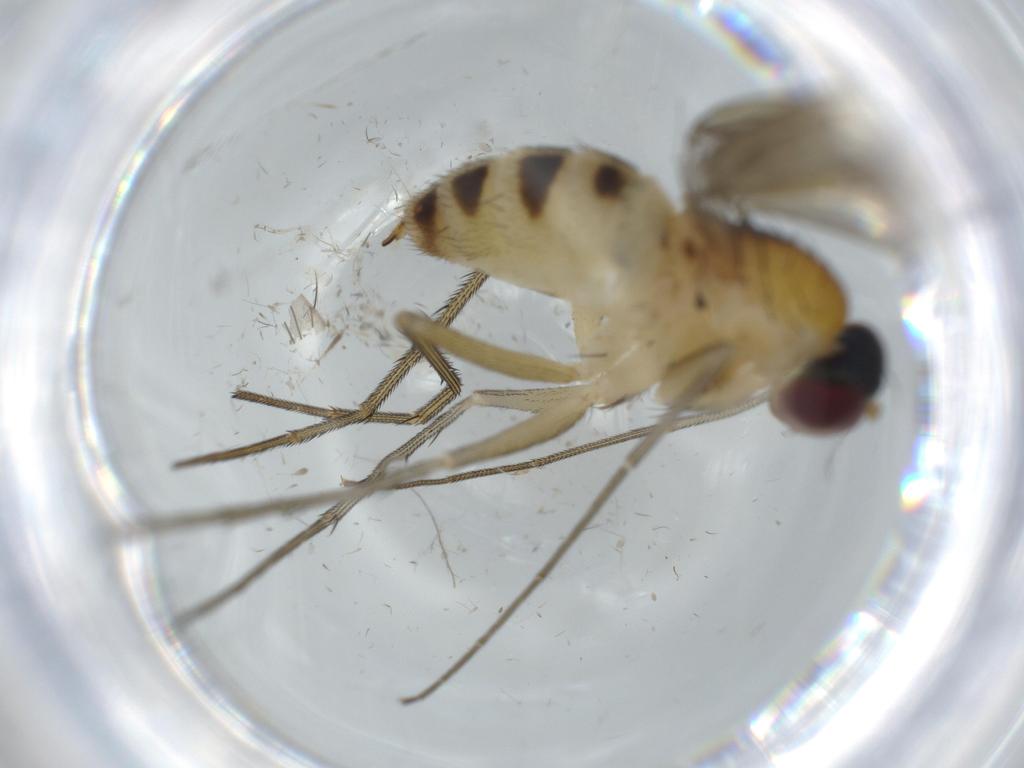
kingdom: Animalia
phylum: Arthropoda
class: Insecta
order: Diptera
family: Dolichopodidae
